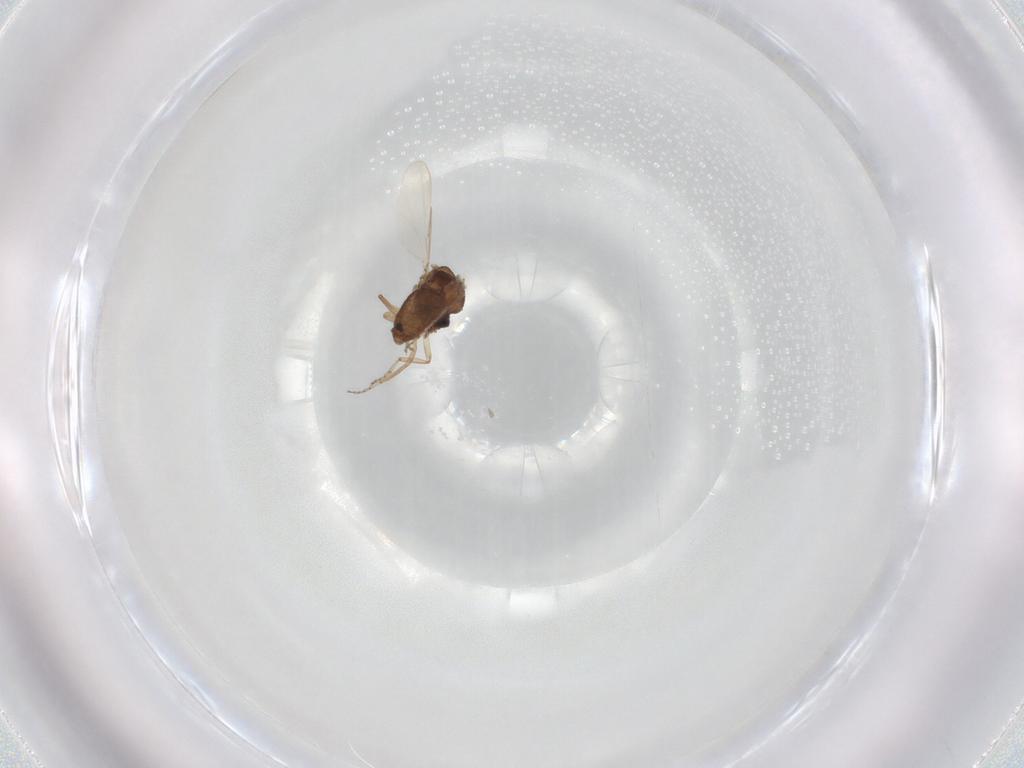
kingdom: Animalia
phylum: Arthropoda
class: Insecta
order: Diptera
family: Ceratopogonidae
